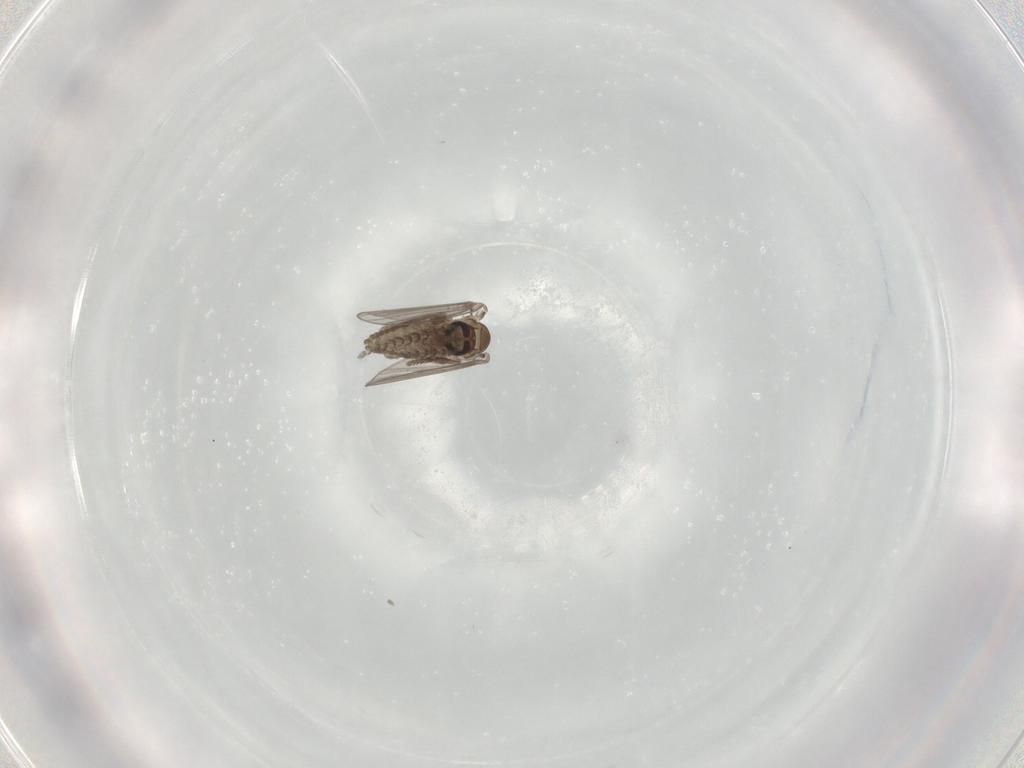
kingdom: Animalia
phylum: Arthropoda
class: Insecta
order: Diptera
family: Psychodidae
